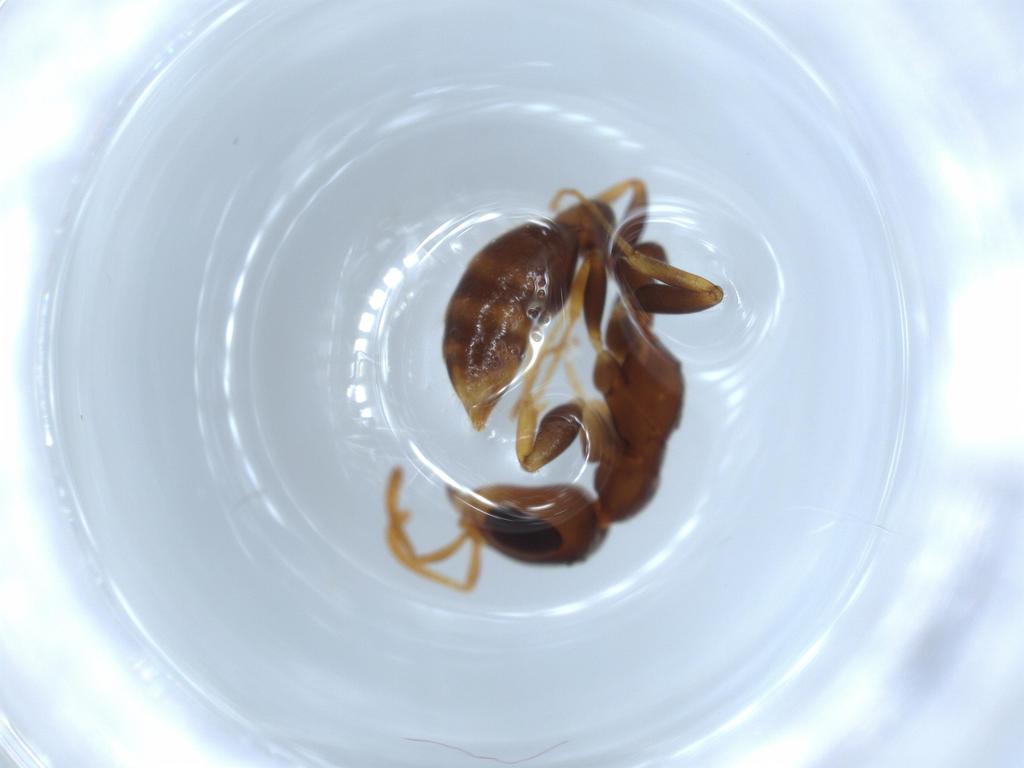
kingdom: Animalia
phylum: Arthropoda
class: Insecta
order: Hymenoptera
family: Formicidae
